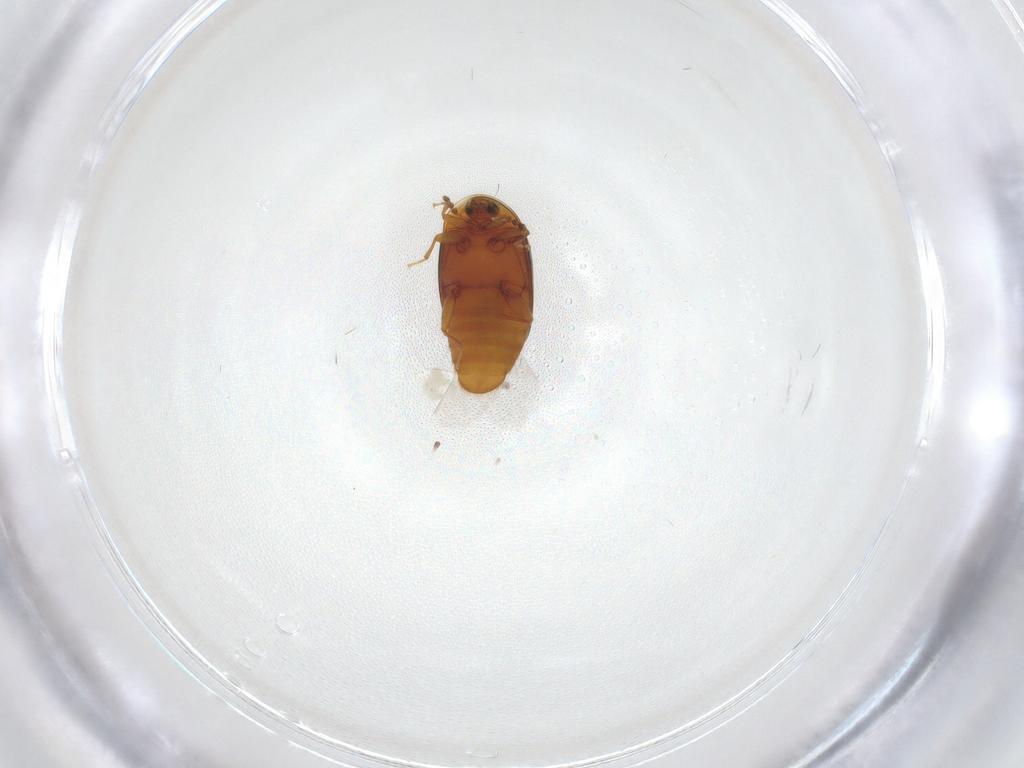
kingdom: Animalia
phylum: Arthropoda
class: Insecta
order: Coleoptera
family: Corylophidae
